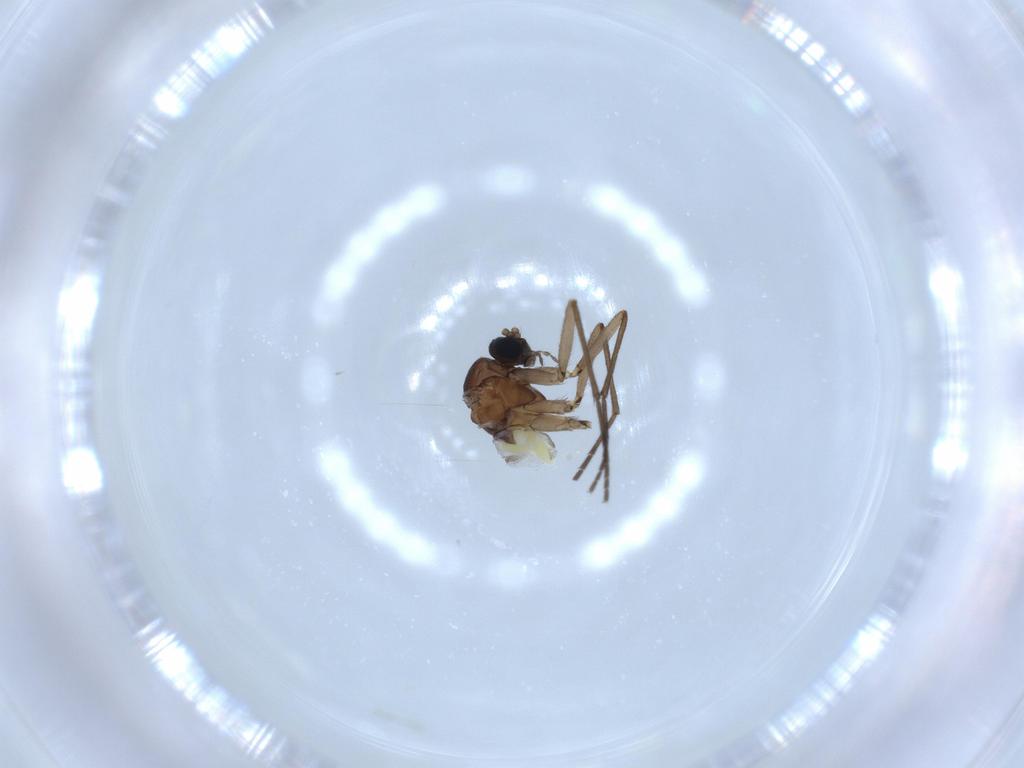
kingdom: Animalia
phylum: Arthropoda
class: Insecta
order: Diptera
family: Sciaridae
